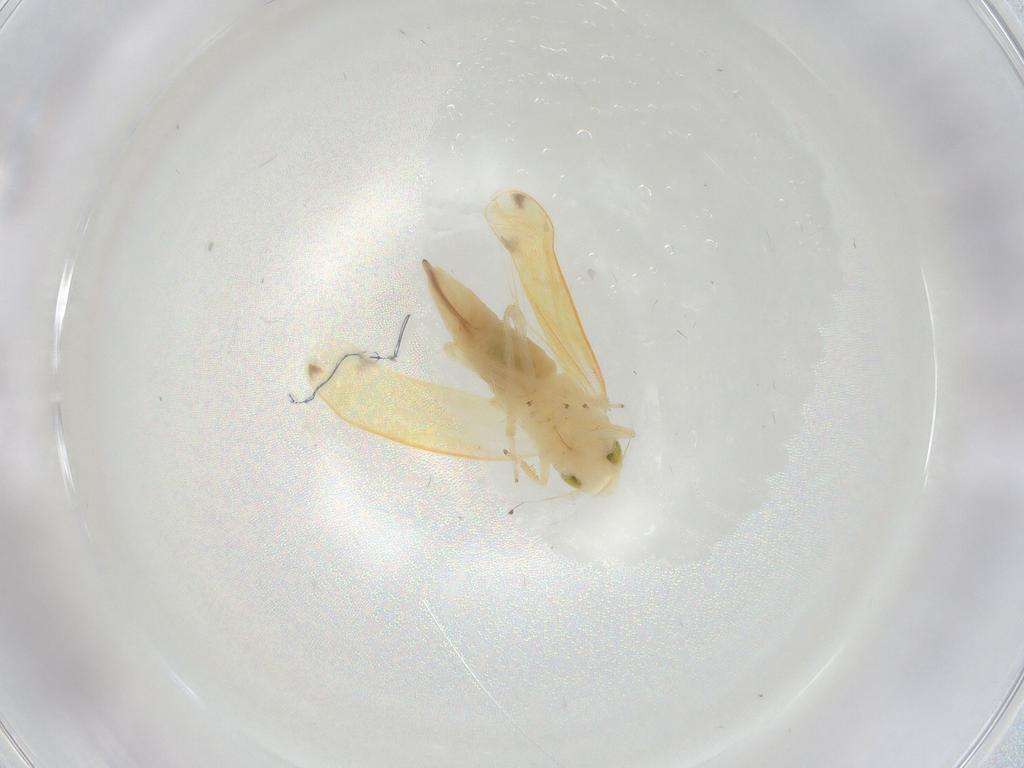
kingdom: Animalia
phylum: Arthropoda
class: Insecta
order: Hemiptera
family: Cicadellidae
